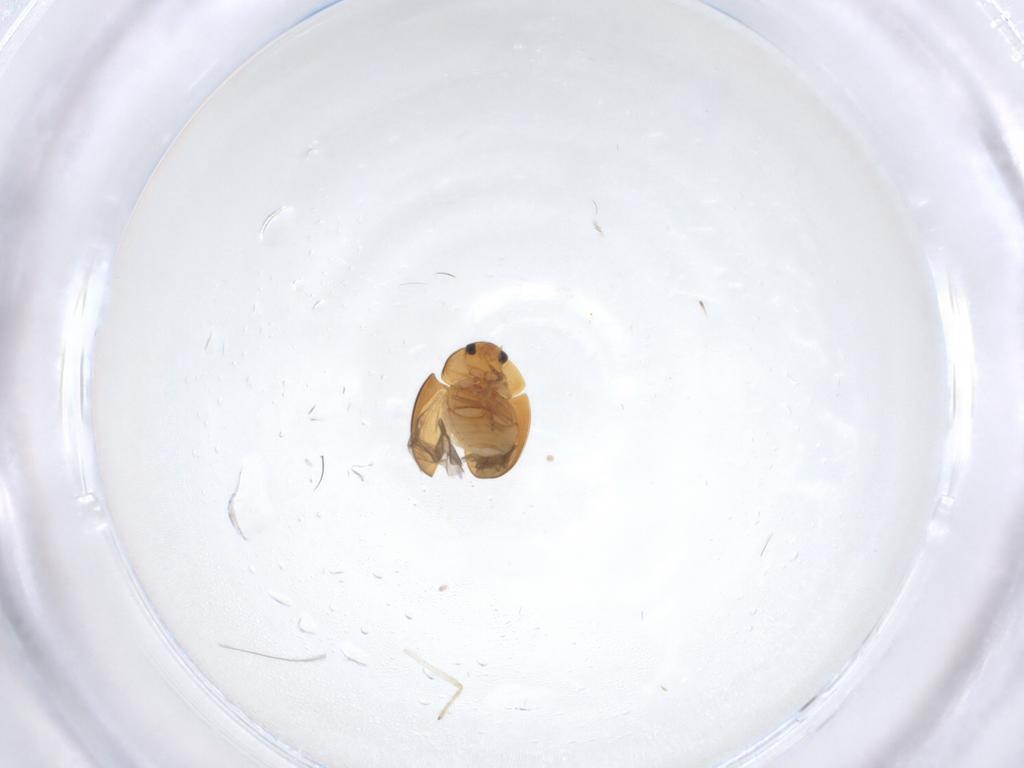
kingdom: Animalia
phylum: Arthropoda
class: Insecta
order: Coleoptera
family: Phalacridae
